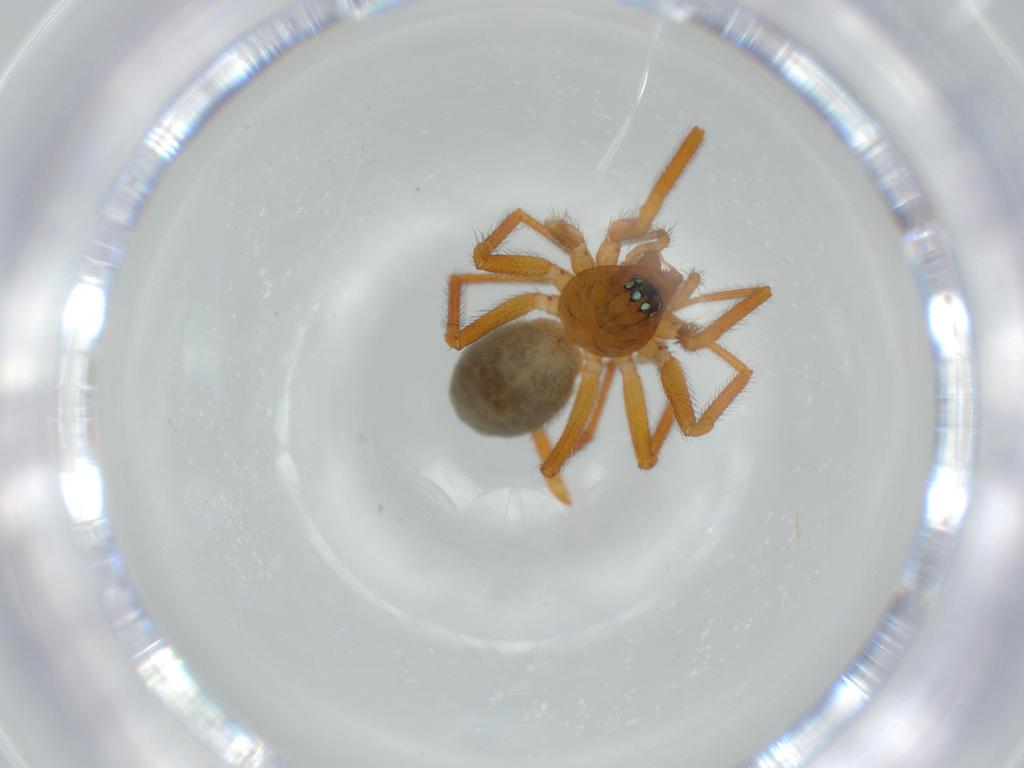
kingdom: Animalia
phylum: Arthropoda
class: Arachnida
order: Araneae
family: Linyphiidae
